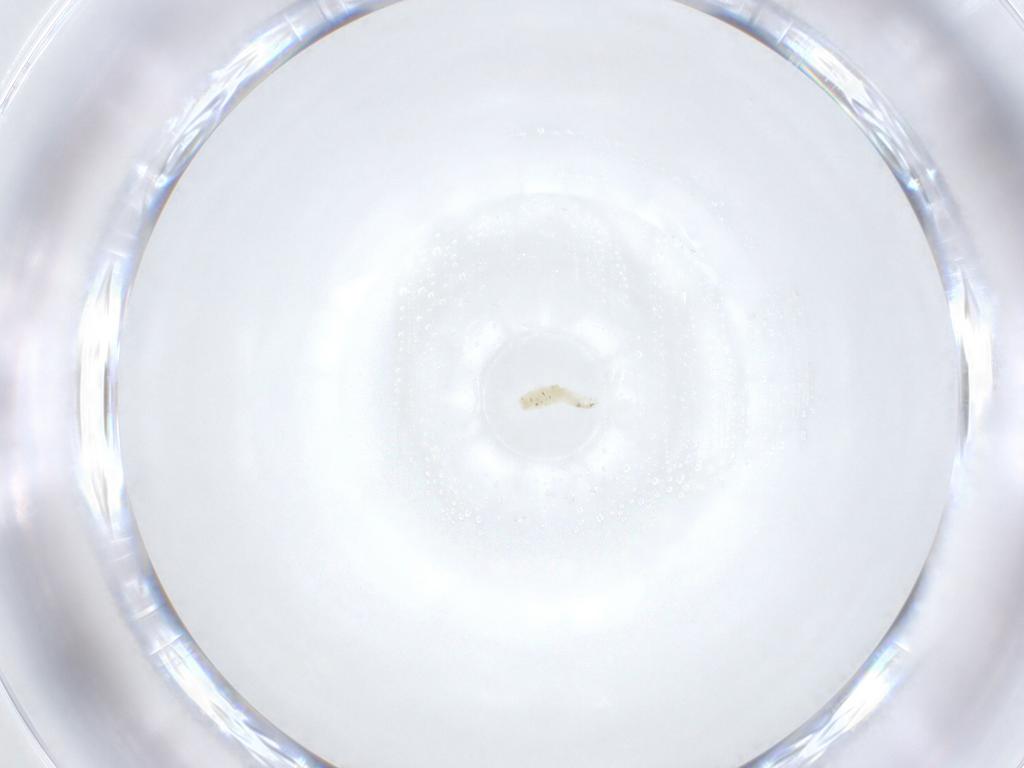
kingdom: Animalia
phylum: Arthropoda
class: Insecta
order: Diptera
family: Sarcophagidae
